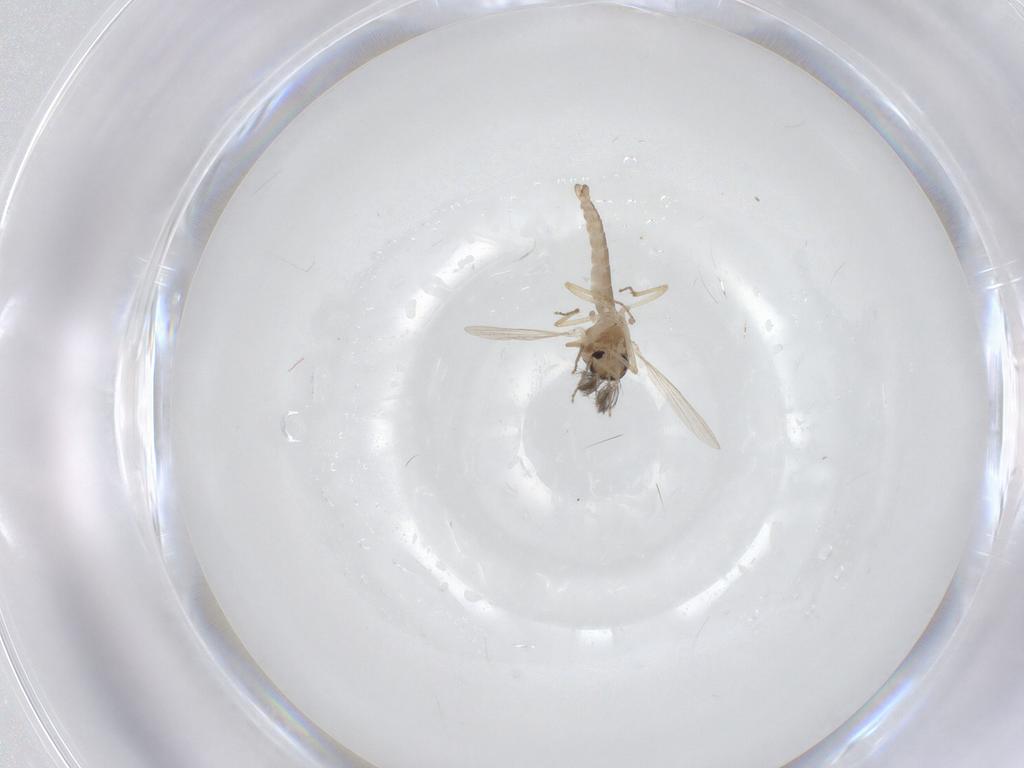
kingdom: Animalia
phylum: Arthropoda
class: Insecta
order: Diptera
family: Ceratopogonidae
